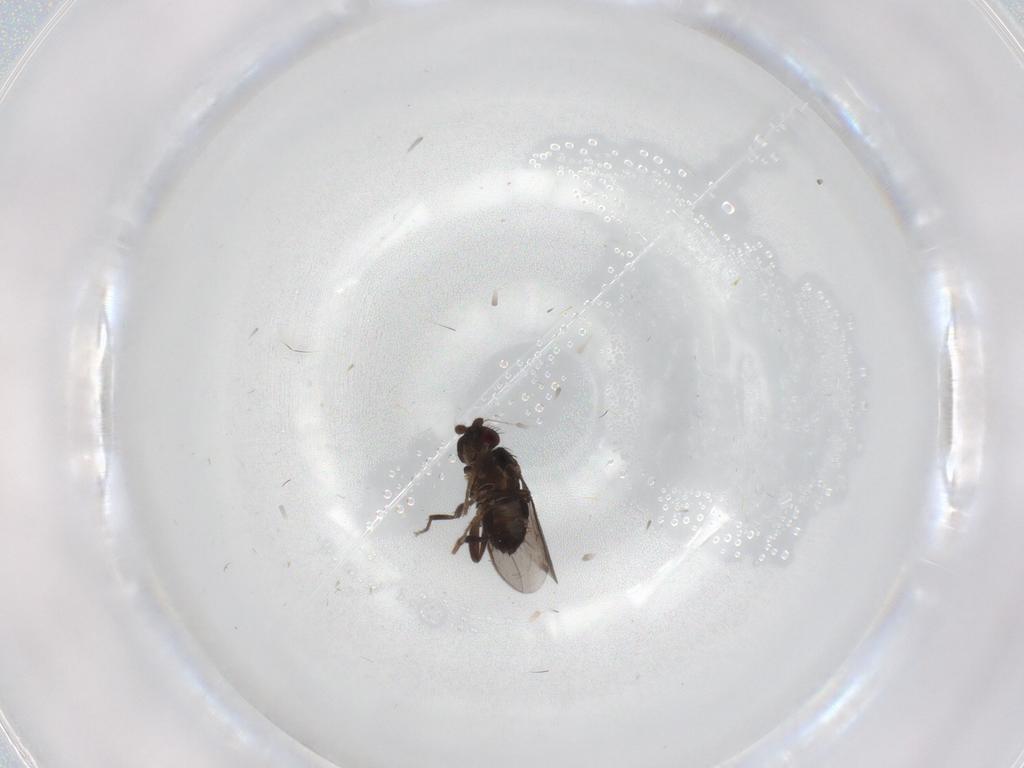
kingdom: Animalia
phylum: Arthropoda
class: Insecta
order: Diptera
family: Sphaeroceridae
